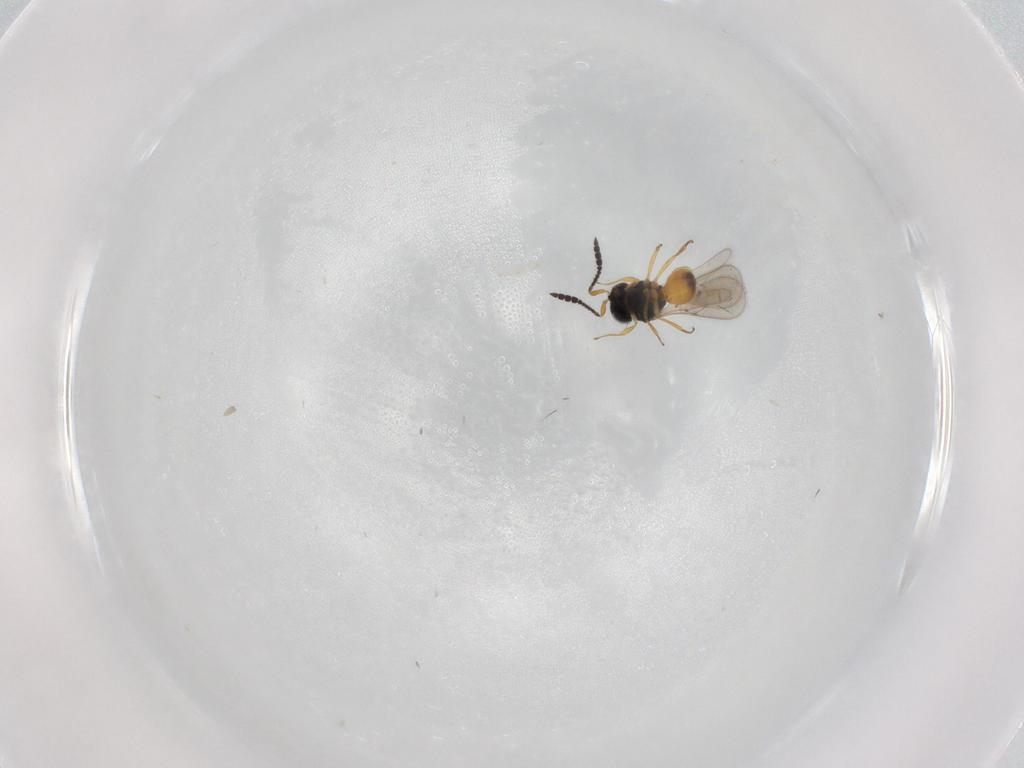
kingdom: Animalia
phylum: Arthropoda
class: Insecta
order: Hymenoptera
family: Scelionidae
